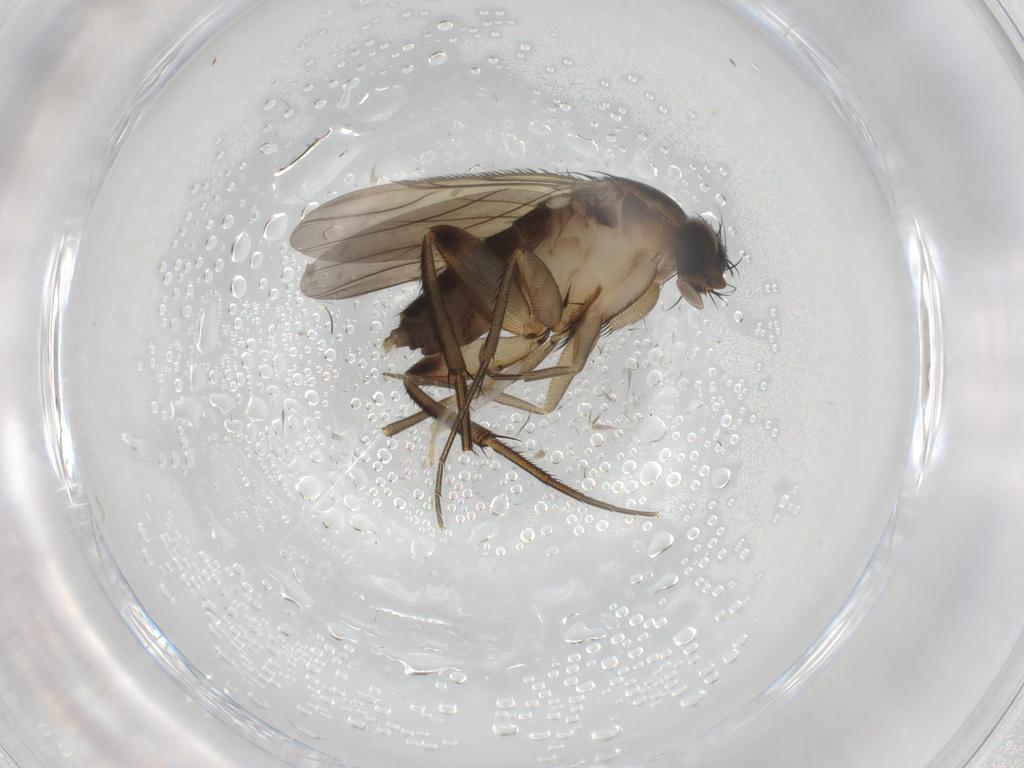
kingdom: Animalia
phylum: Arthropoda
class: Insecta
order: Diptera
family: Phoridae
